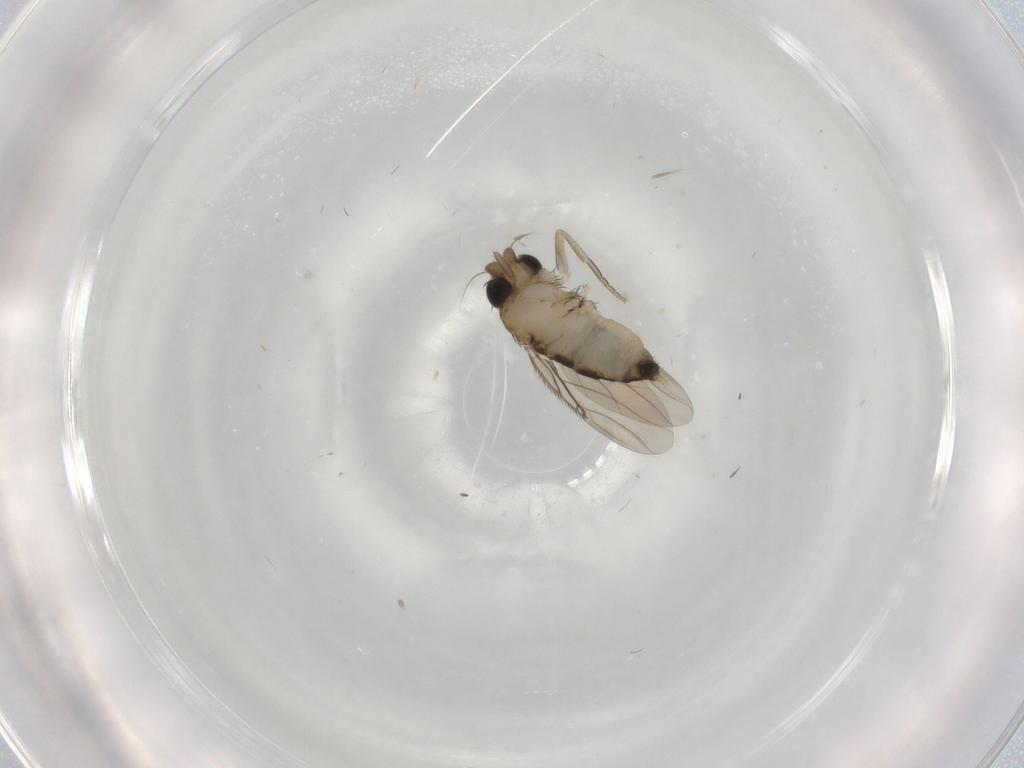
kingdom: Animalia
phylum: Arthropoda
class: Insecta
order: Diptera
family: Phoridae
